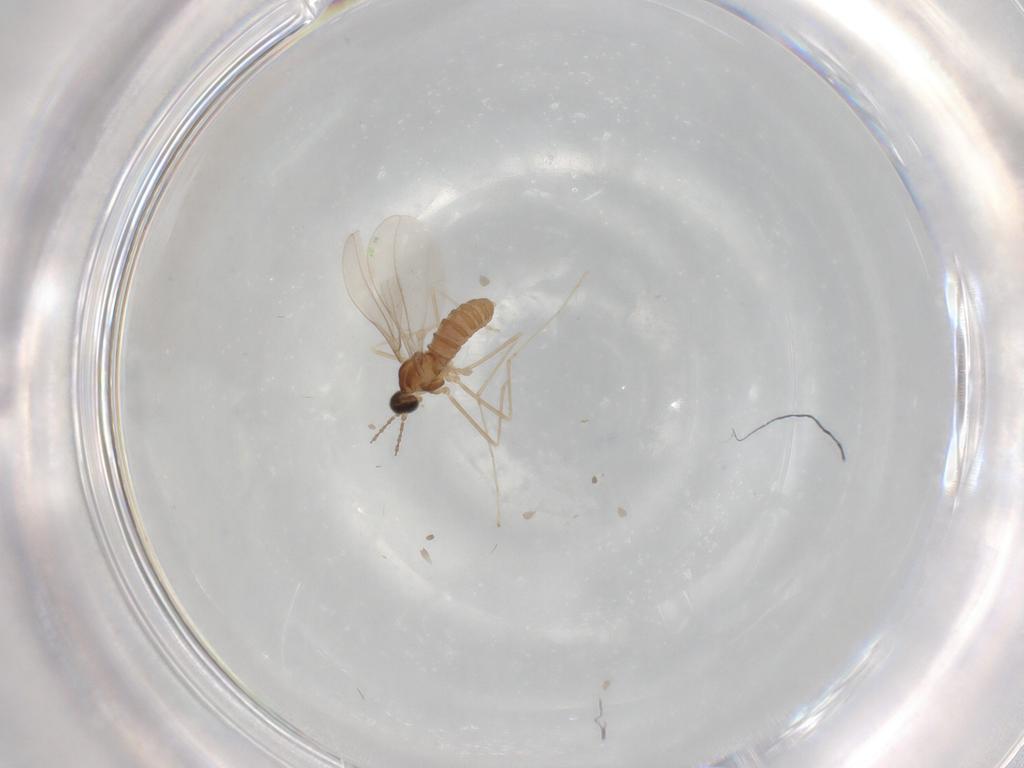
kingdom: Animalia
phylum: Arthropoda
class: Insecta
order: Diptera
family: Cecidomyiidae
